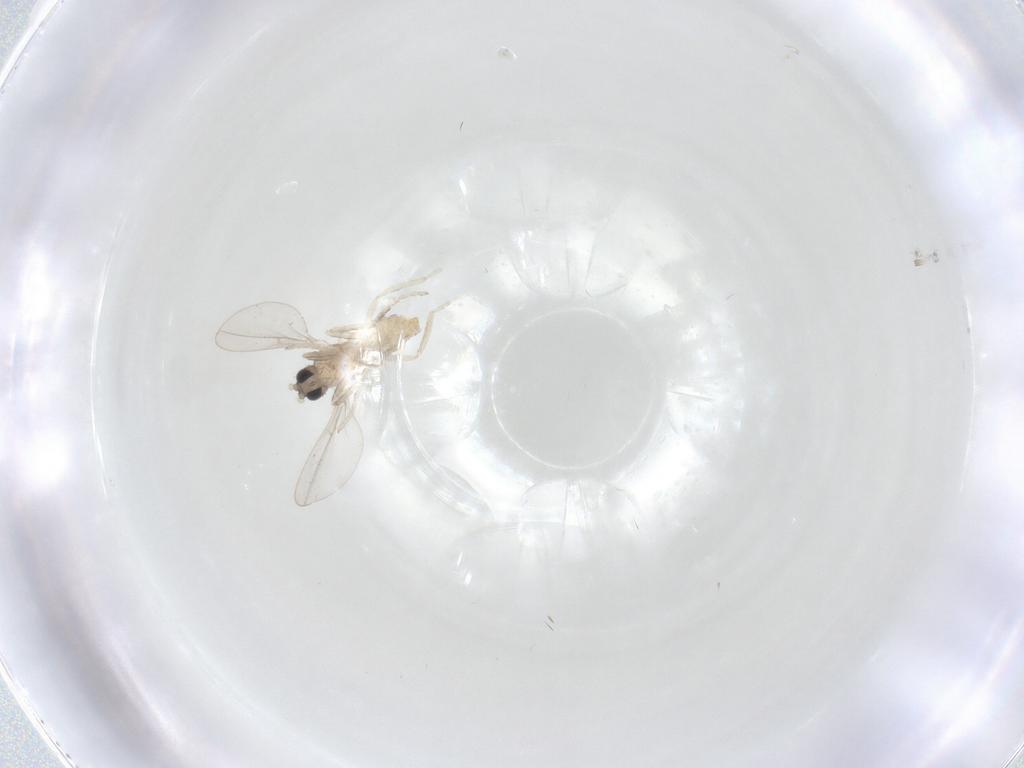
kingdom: Animalia
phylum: Arthropoda
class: Insecta
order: Diptera
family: Cecidomyiidae
